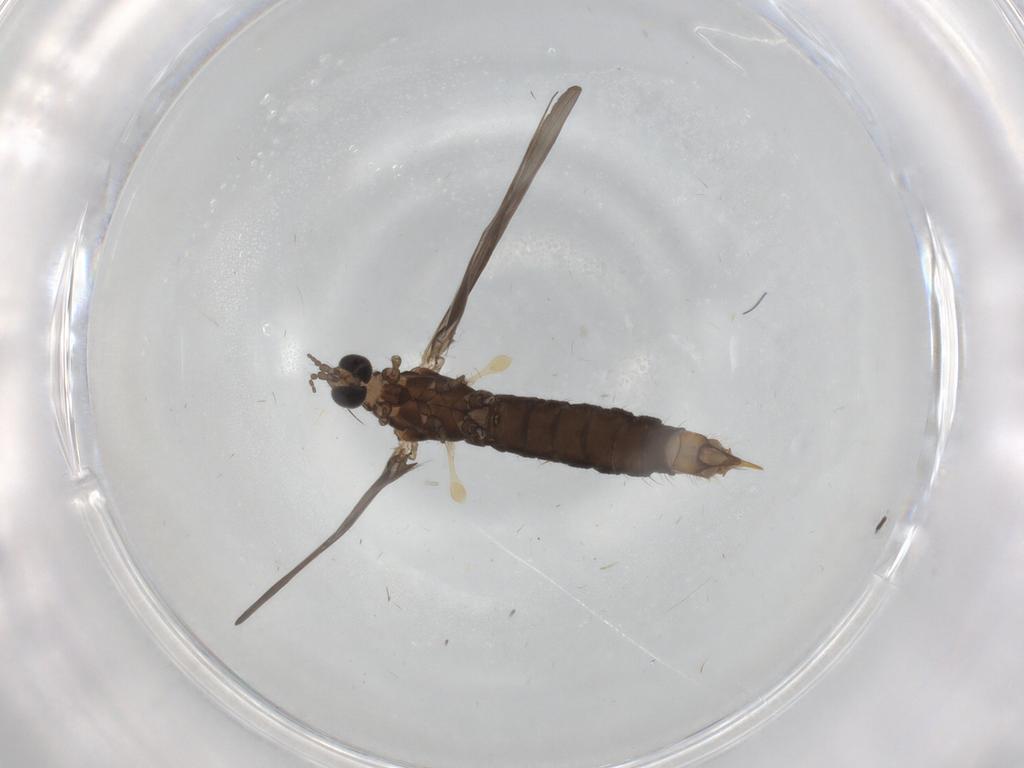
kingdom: Animalia
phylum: Arthropoda
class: Insecta
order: Diptera
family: Limoniidae
